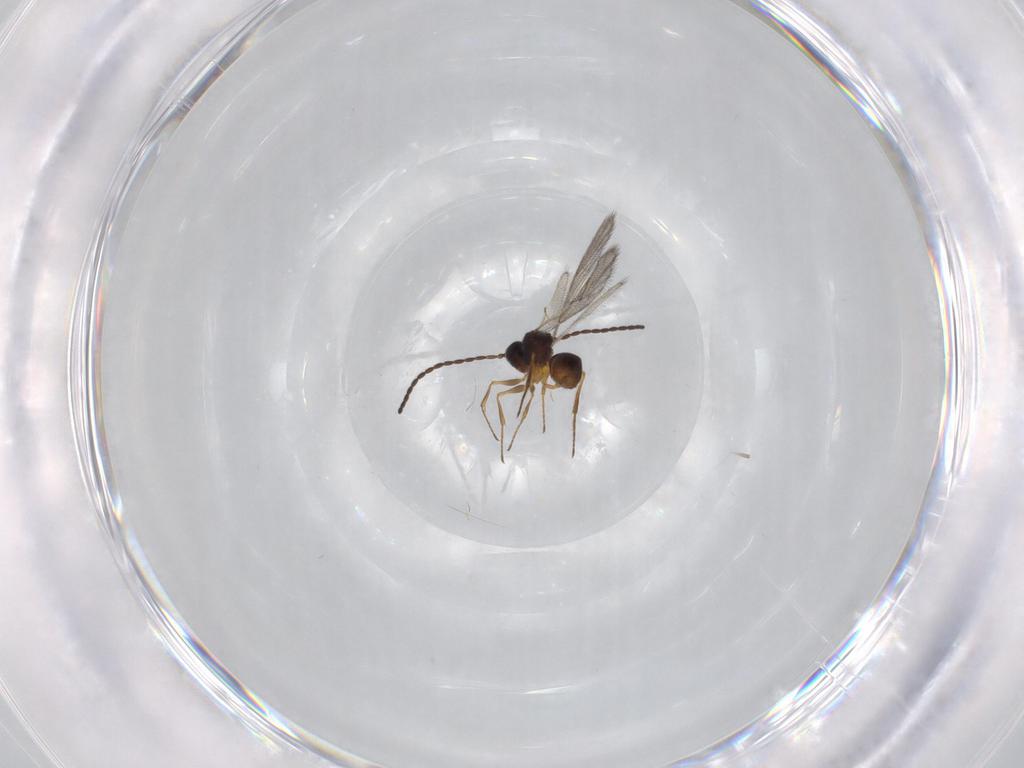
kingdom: Animalia
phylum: Arthropoda
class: Insecta
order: Hymenoptera
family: Figitidae
